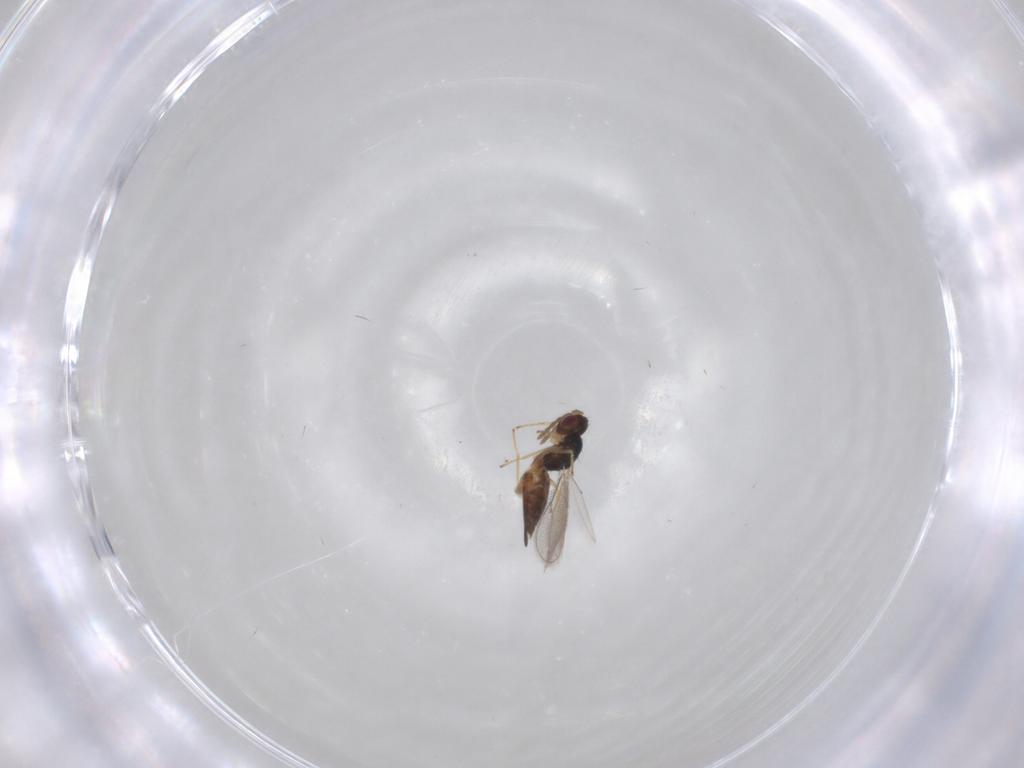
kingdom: Animalia
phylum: Arthropoda
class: Insecta
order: Hymenoptera
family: Eulophidae
